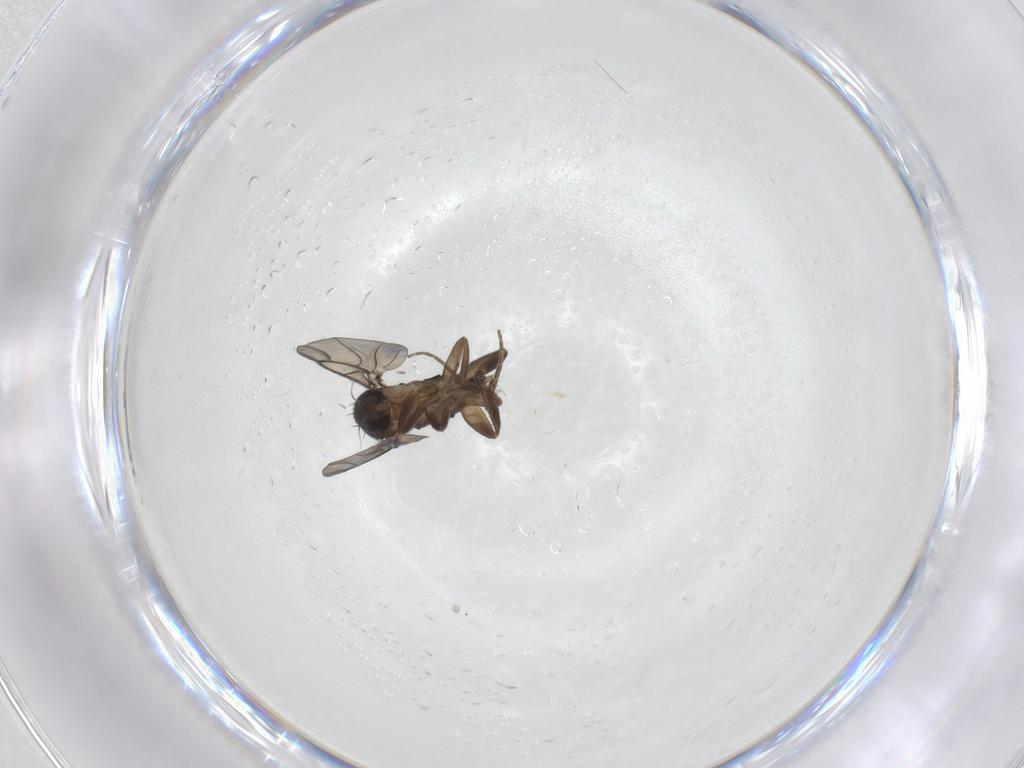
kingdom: Animalia
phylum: Arthropoda
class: Insecta
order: Diptera
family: Phoridae
